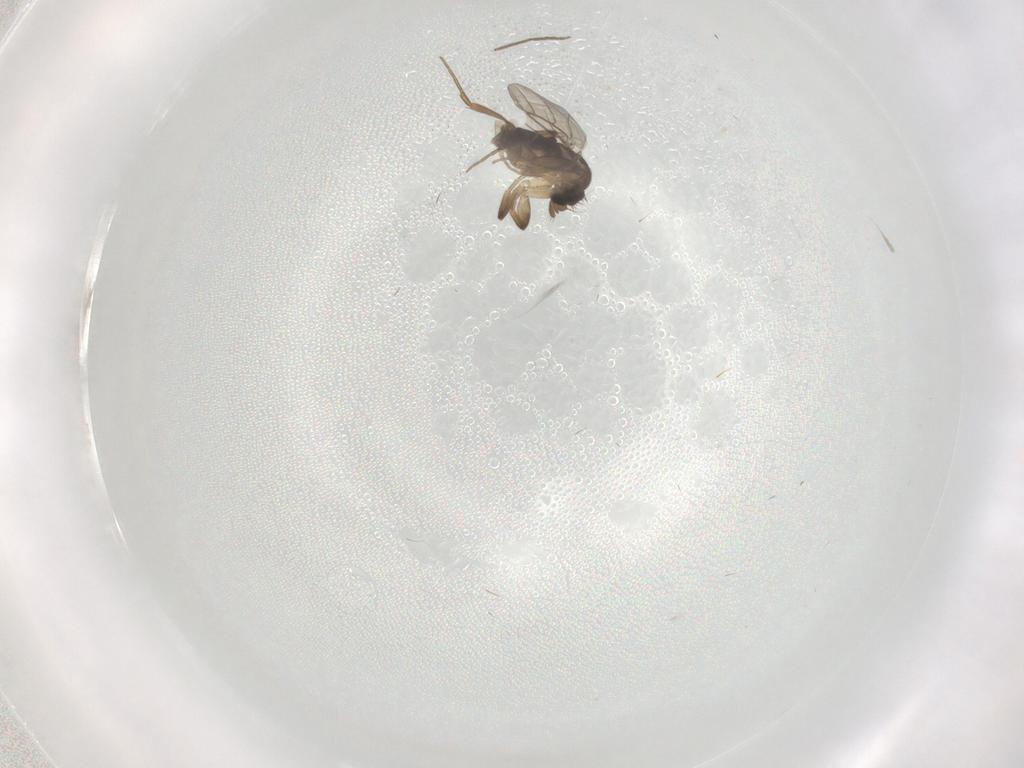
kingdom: Animalia
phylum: Arthropoda
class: Insecta
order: Diptera
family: Phoridae
